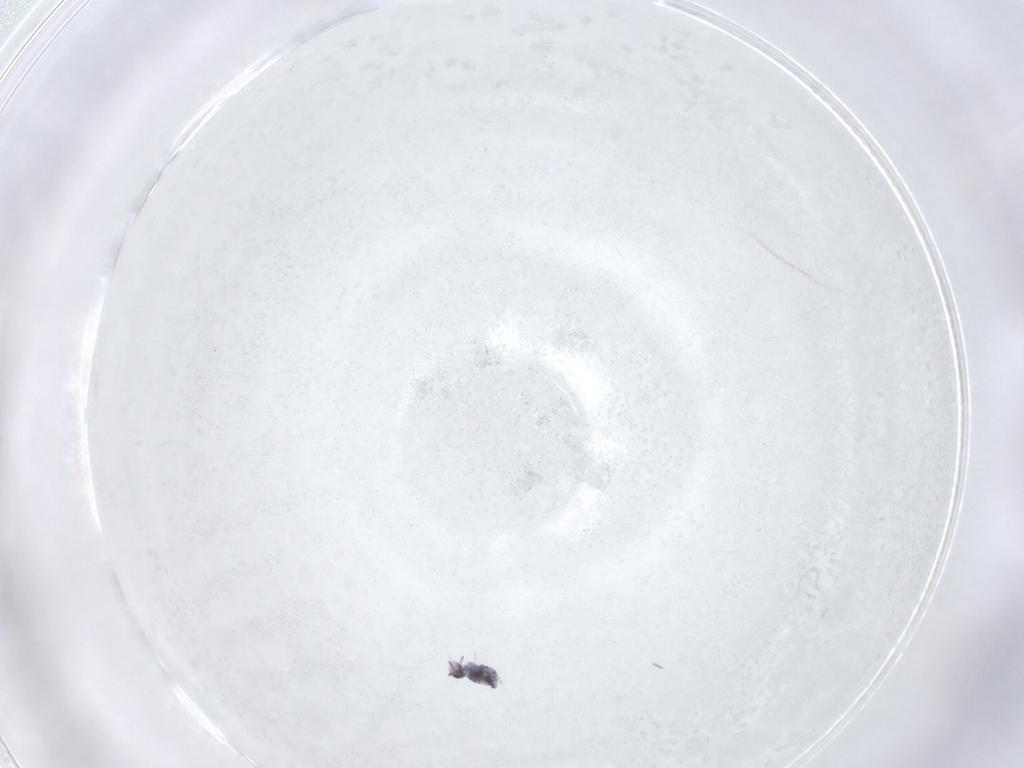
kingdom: Animalia
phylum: Arthropoda
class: Collembola
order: Symphypleona
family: Bourletiellidae
